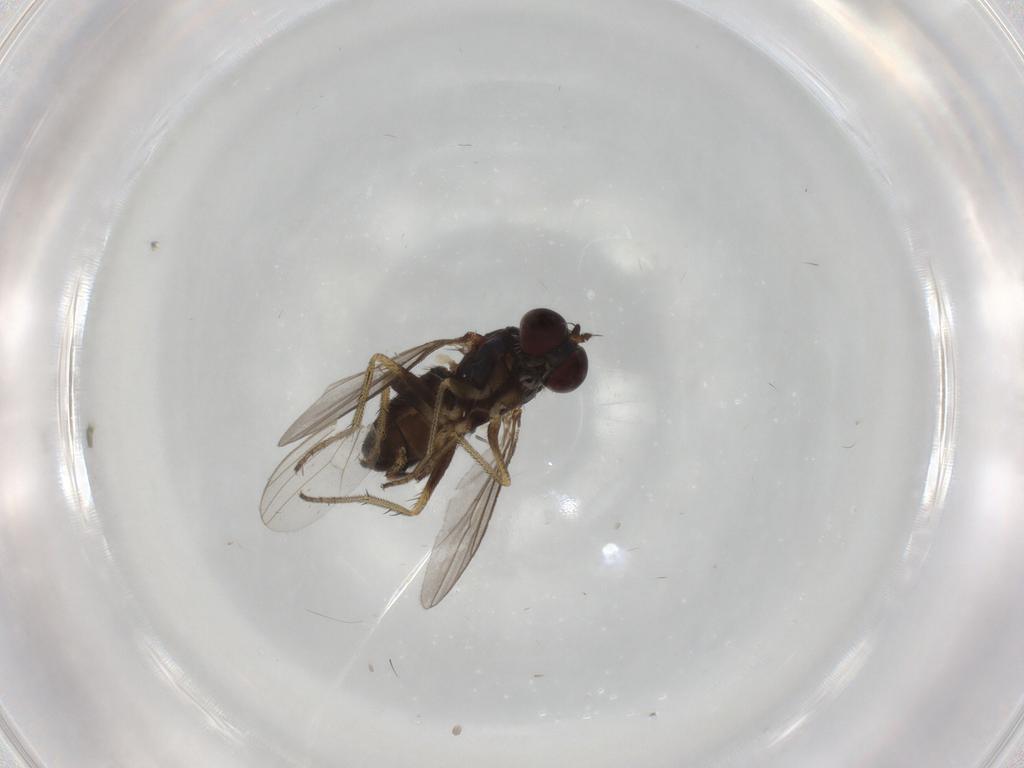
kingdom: Animalia
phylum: Arthropoda
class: Insecta
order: Diptera
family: Dolichopodidae
